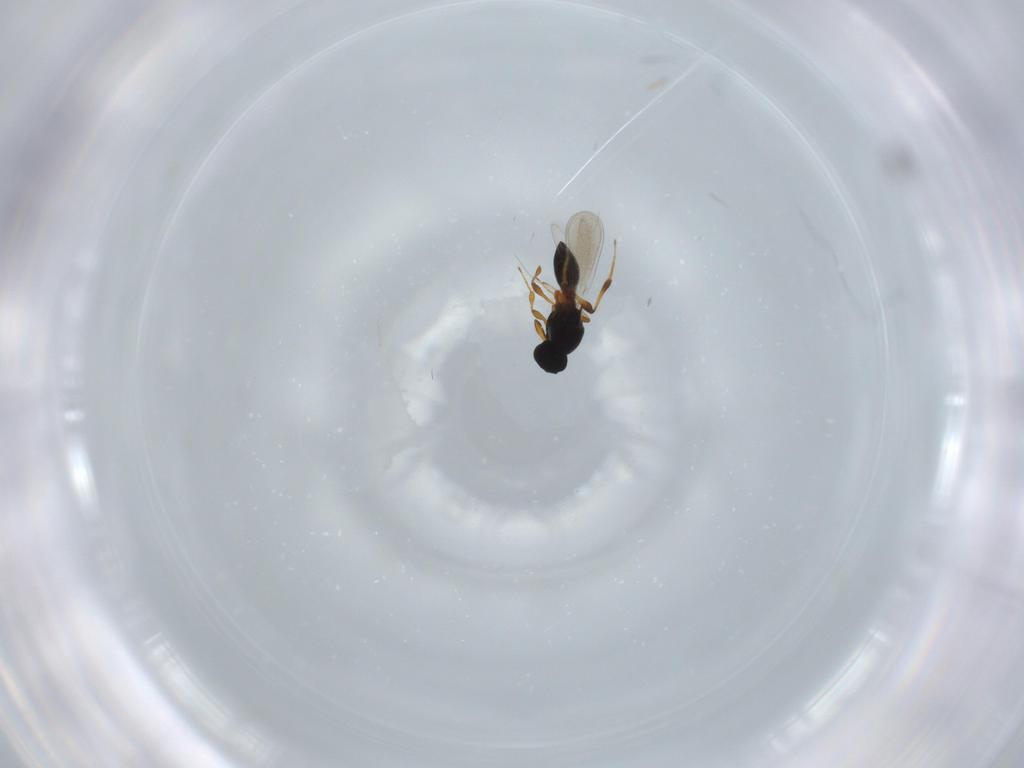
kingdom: Animalia
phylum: Arthropoda
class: Insecta
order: Hymenoptera
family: Platygastridae
